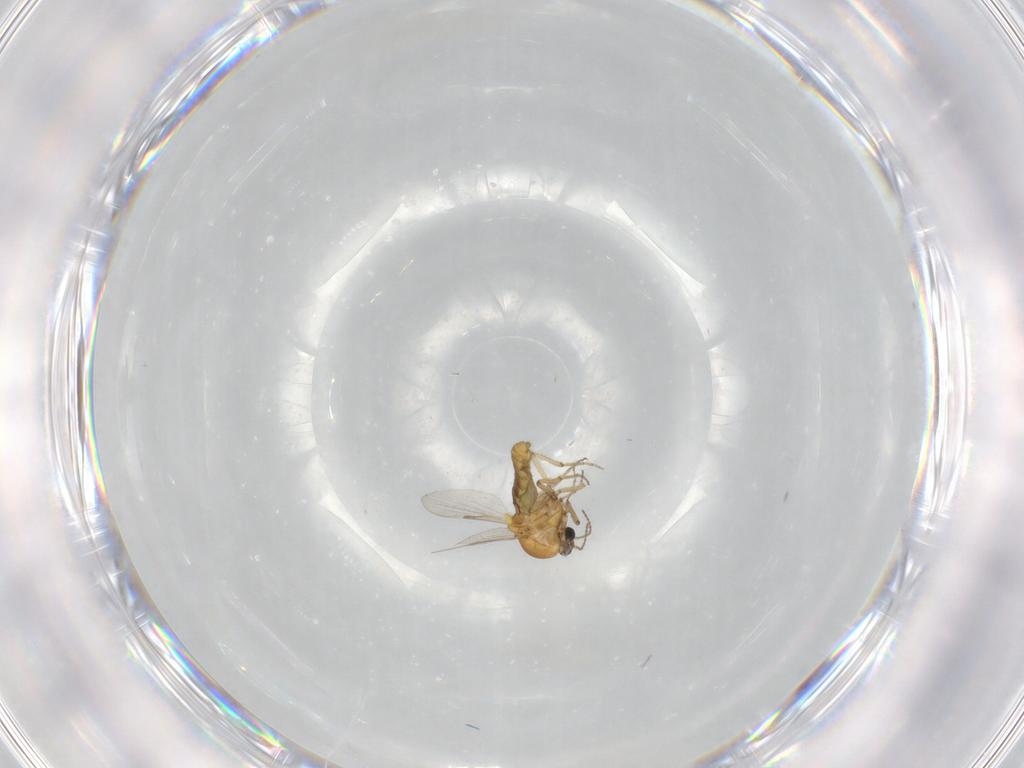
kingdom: Animalia
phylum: Arthropoda
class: Insecta
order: Diptera
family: Ceratopogonidae
